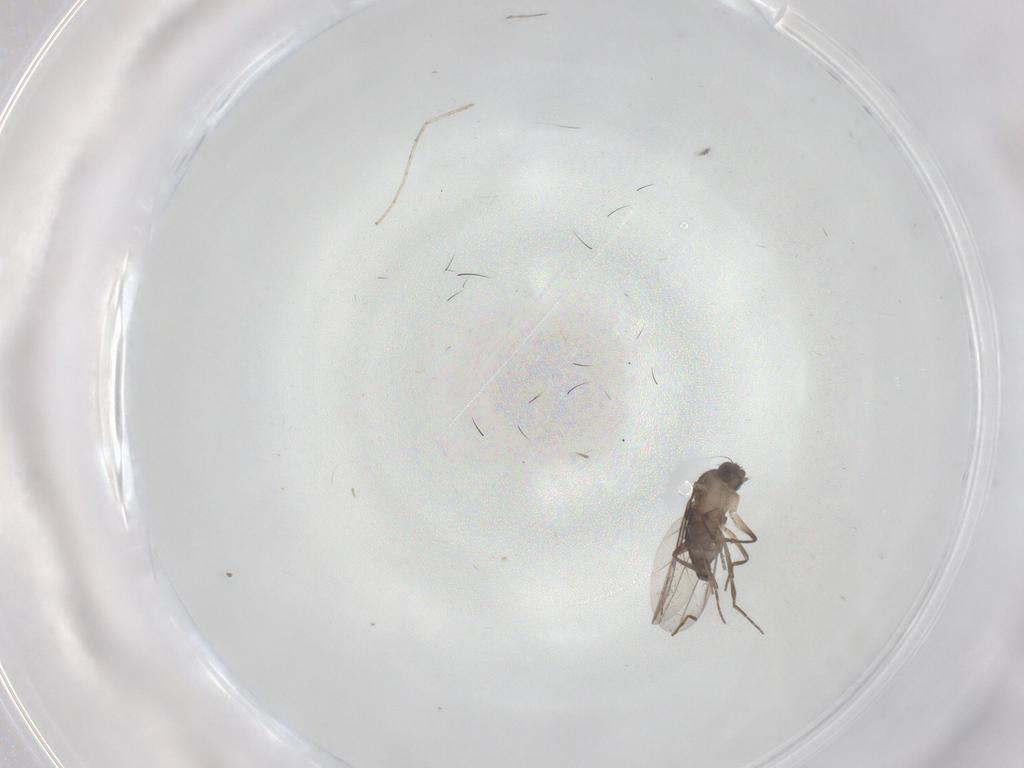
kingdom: Animalia
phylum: Arthropoda
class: Insecta
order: Diptera
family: Phoridae
